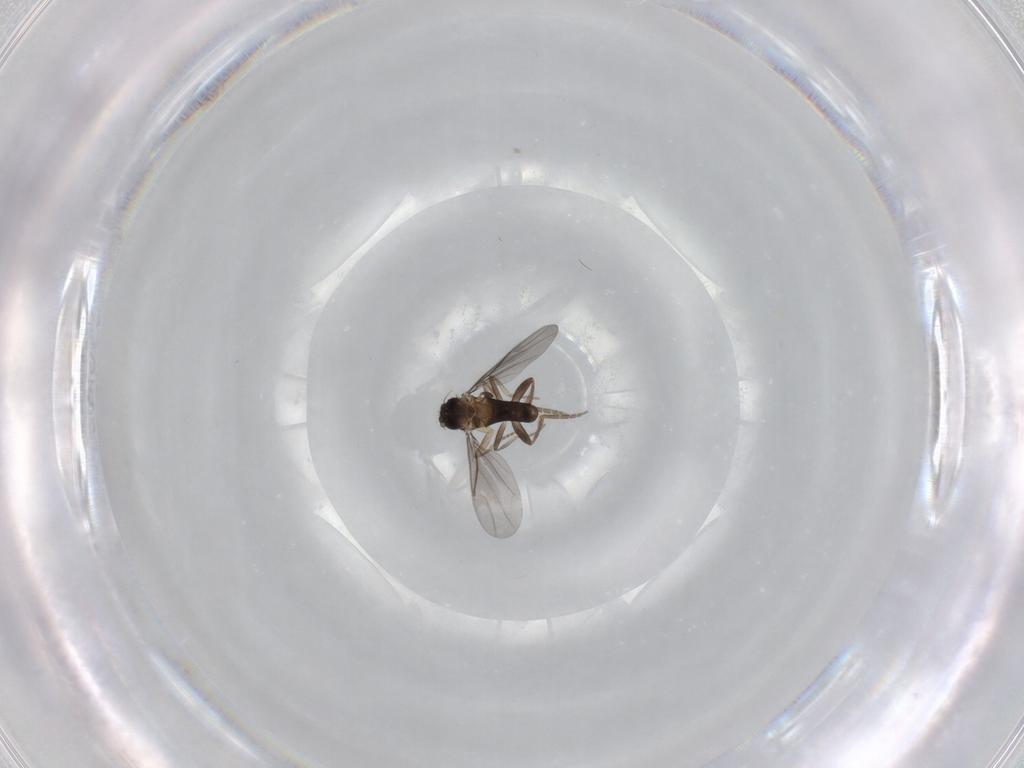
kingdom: Animalia
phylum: Arthropoda
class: Insecta
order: Diptera
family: Cecidomyiidae
